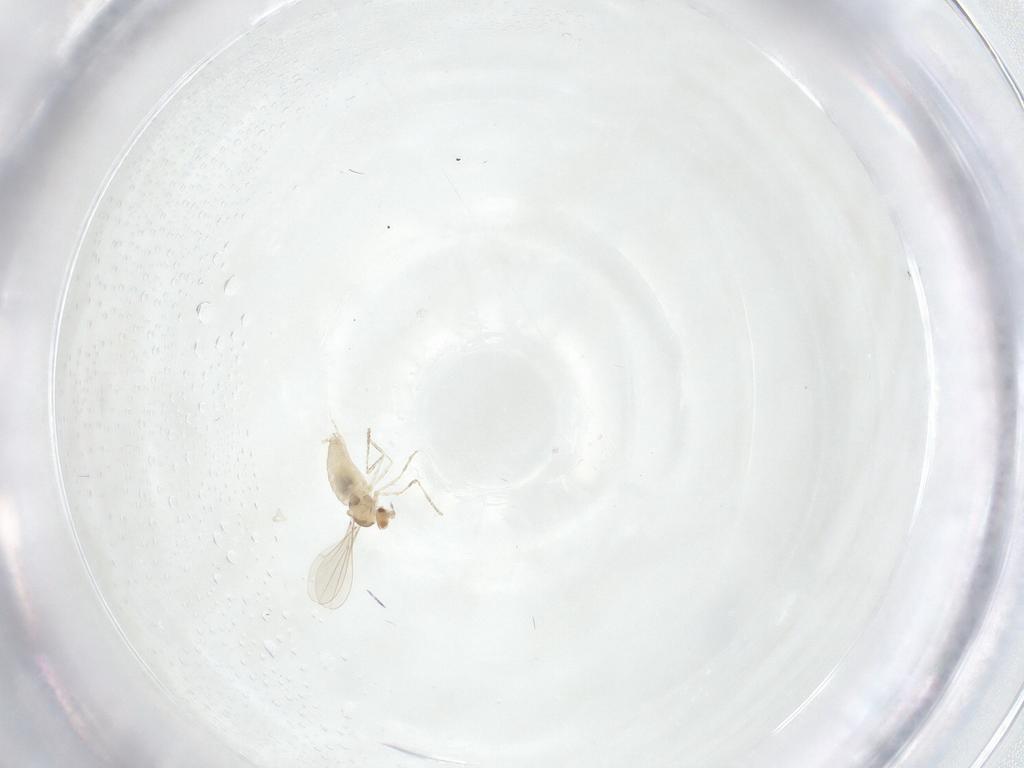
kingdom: Animalia
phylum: Arthropoda
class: Insecta
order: Diptera
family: Cecidomyiidae
